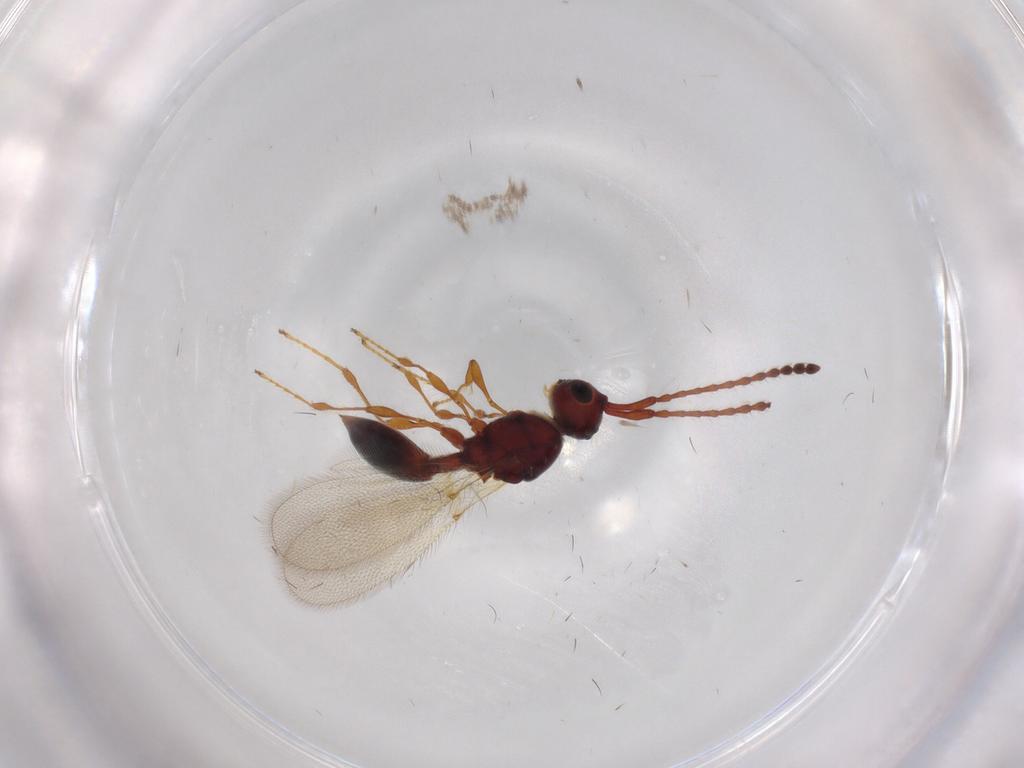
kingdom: Animalia
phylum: Arthropoda
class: Insecta
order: Hymenoptera
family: Diapriidae
